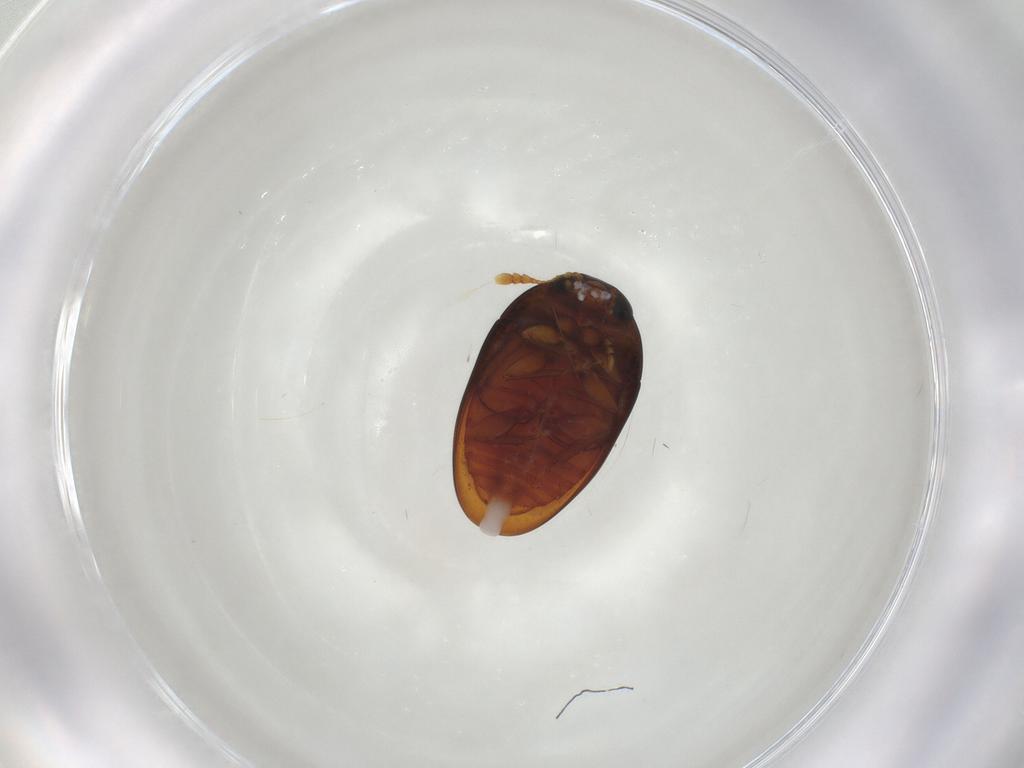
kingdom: Animalia
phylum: Arthropoda
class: Insecta
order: Coleoptera
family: Phalacridae
